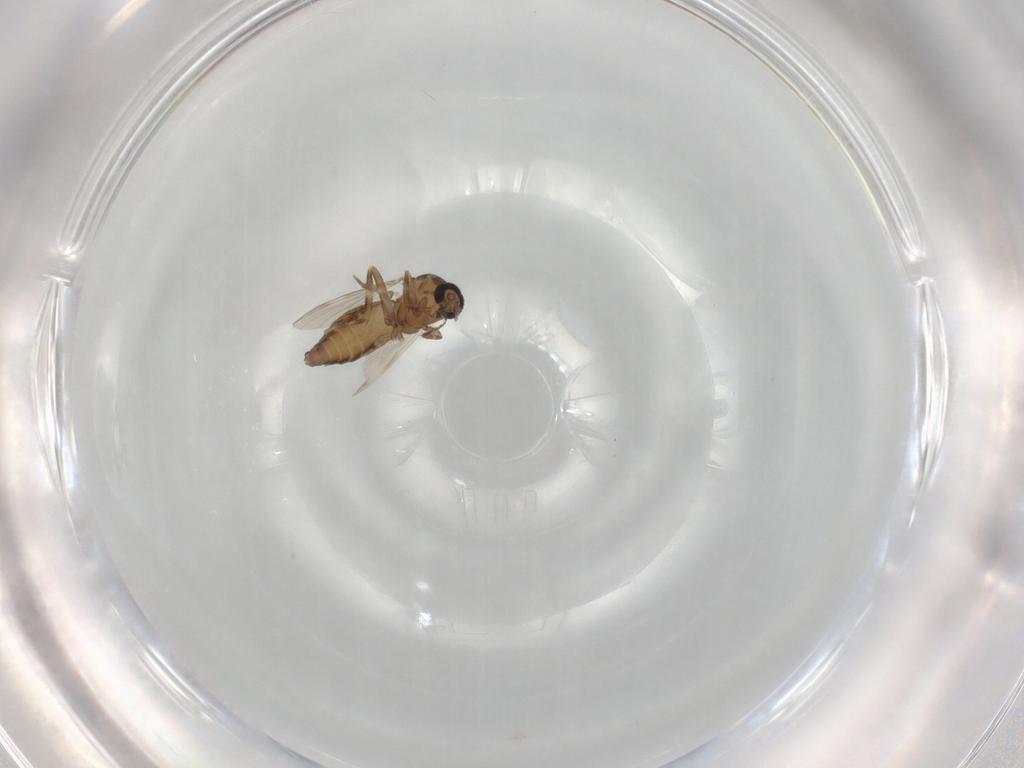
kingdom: Animalia
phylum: Arthropoda
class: Insecta
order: Diptera
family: Ceratopogonidae
